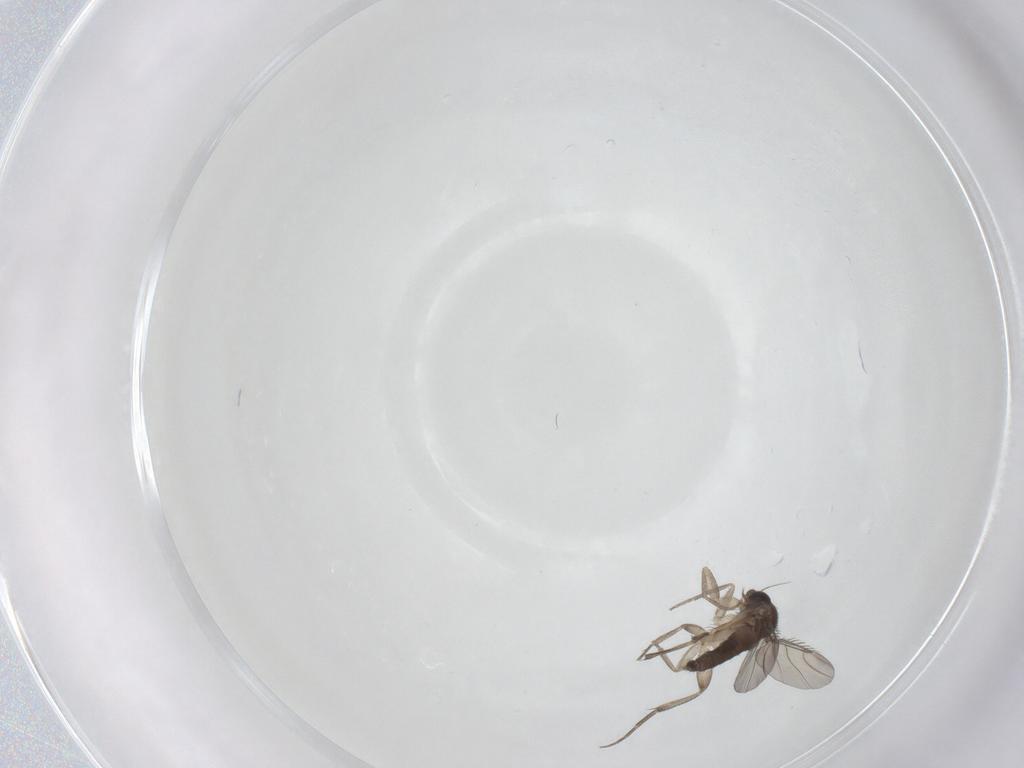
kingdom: Animalia
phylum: Arthropoda
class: Insecta
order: Diptera
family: Phoridae
